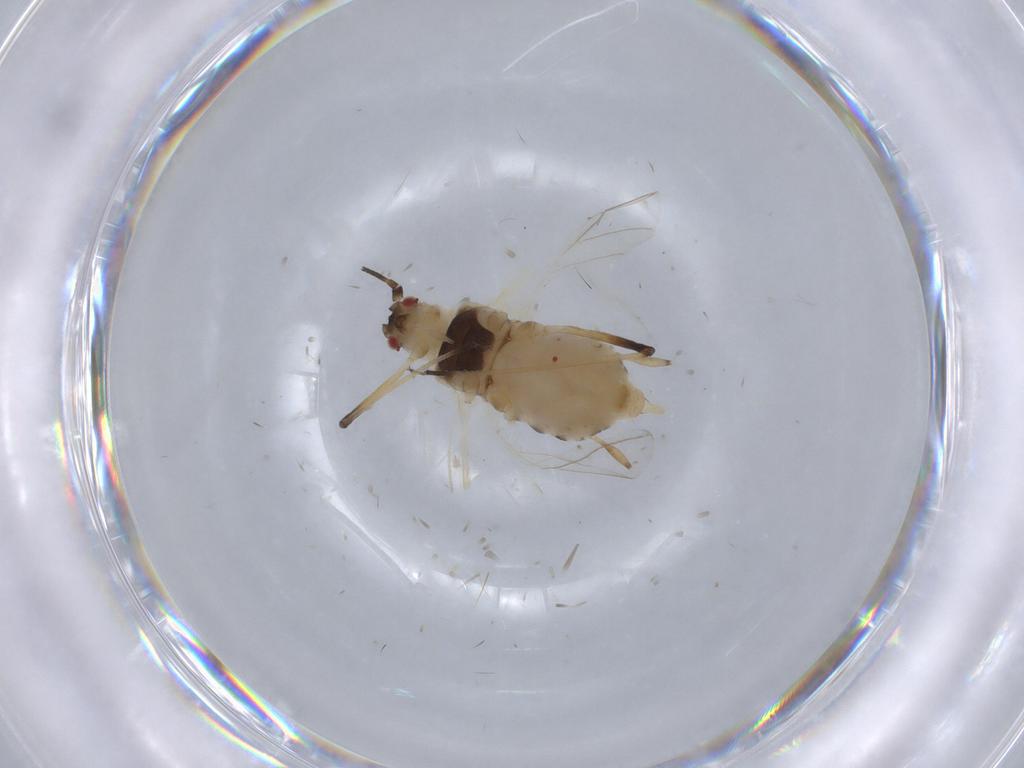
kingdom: Animalia
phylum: Arthropoda
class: Insecta
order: Hemiptera
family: Aphididae
